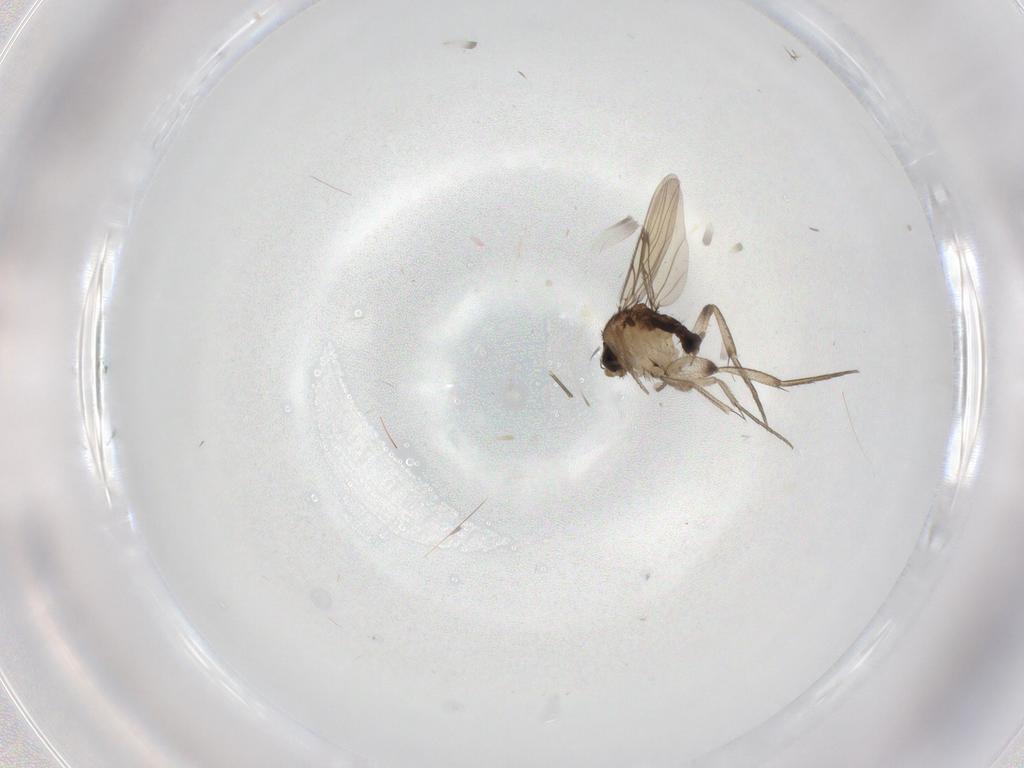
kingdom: Animalia
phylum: Arthropoda
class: Insecta
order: Diptera
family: Phoridae
